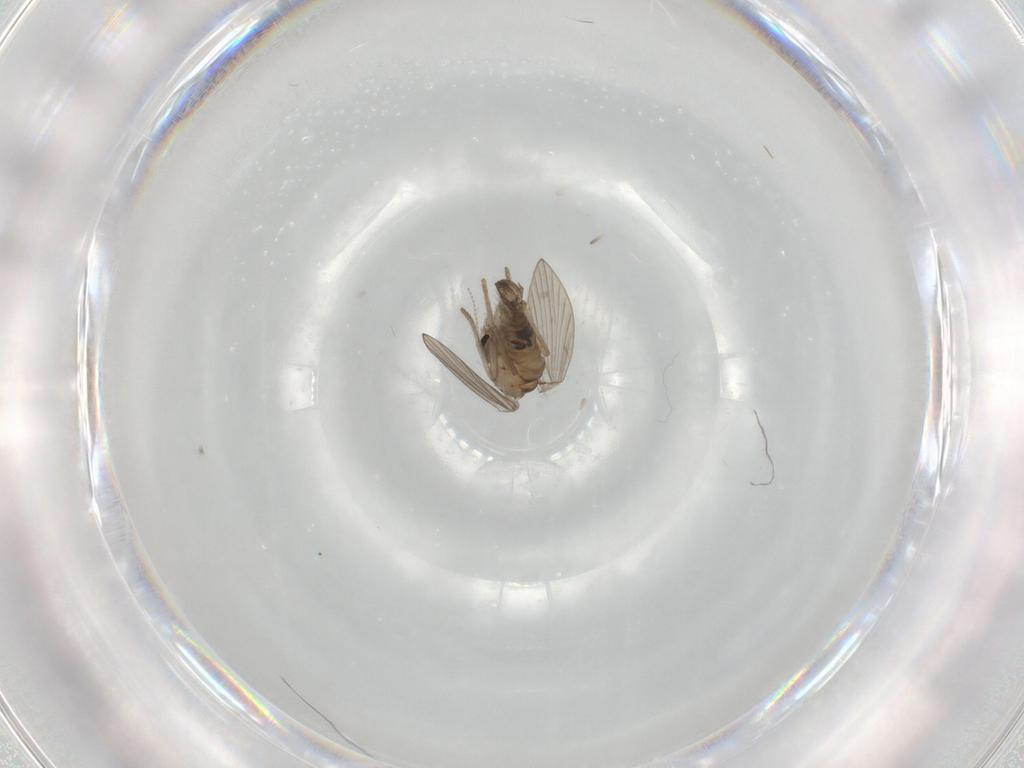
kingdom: Animalia
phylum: Arthropoda
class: Insecta
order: Diptera
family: Psychodidae
